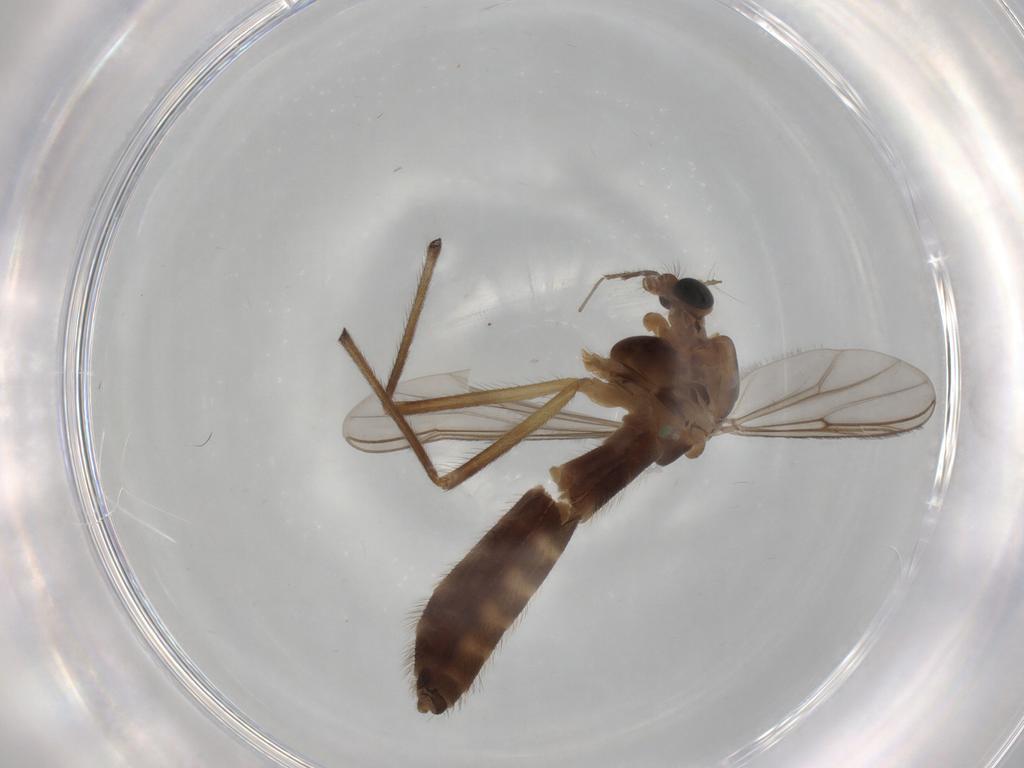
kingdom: Animalia
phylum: Arthropoda
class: Insecta
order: Diptera
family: Chironomidae
